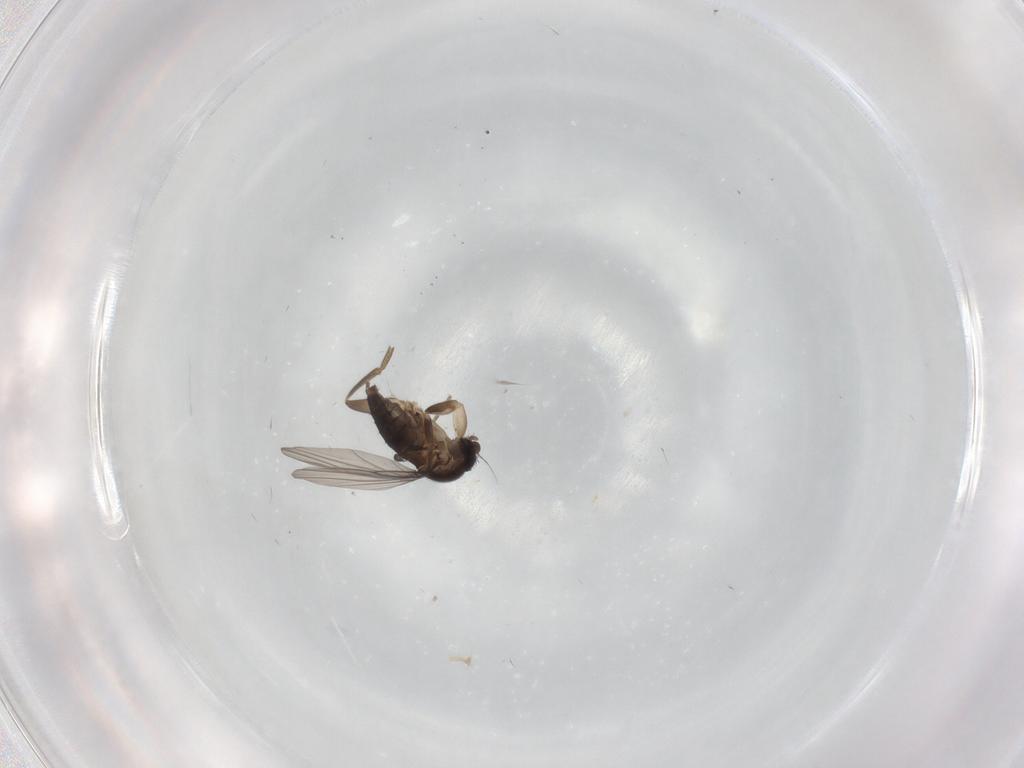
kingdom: Animalia
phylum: Arthropoda
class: Insecta
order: Diptera
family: Phoridae
